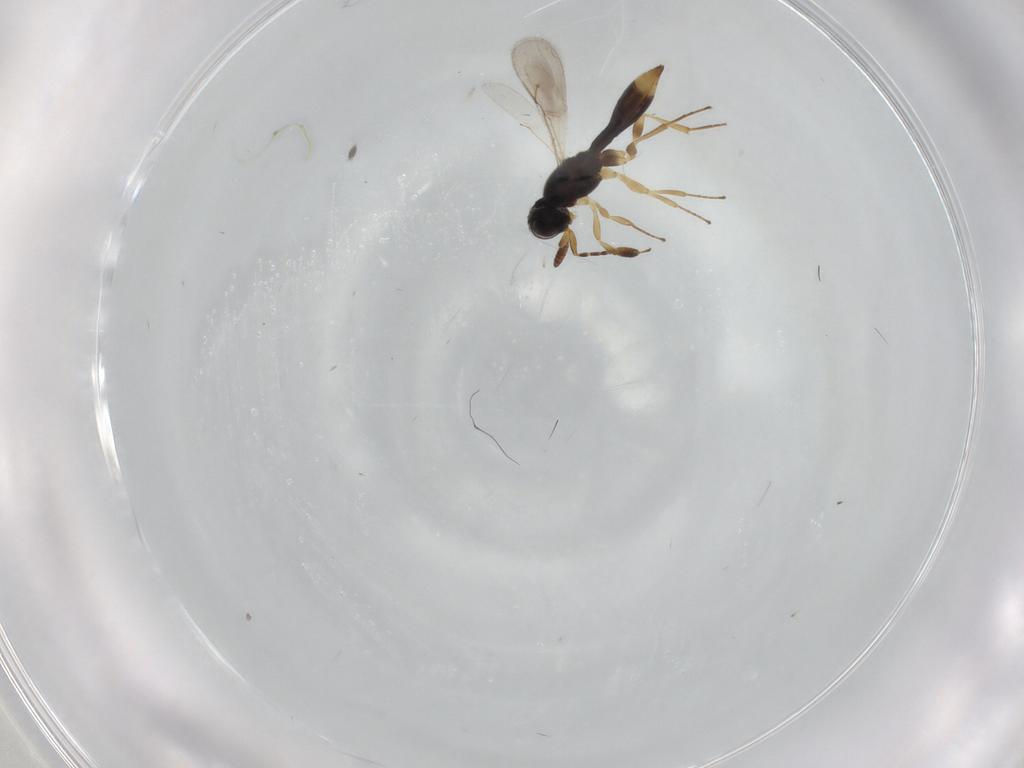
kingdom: Animalia
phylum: Arthropoda
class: Insecta
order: Hymenoptera
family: Scelionidae
